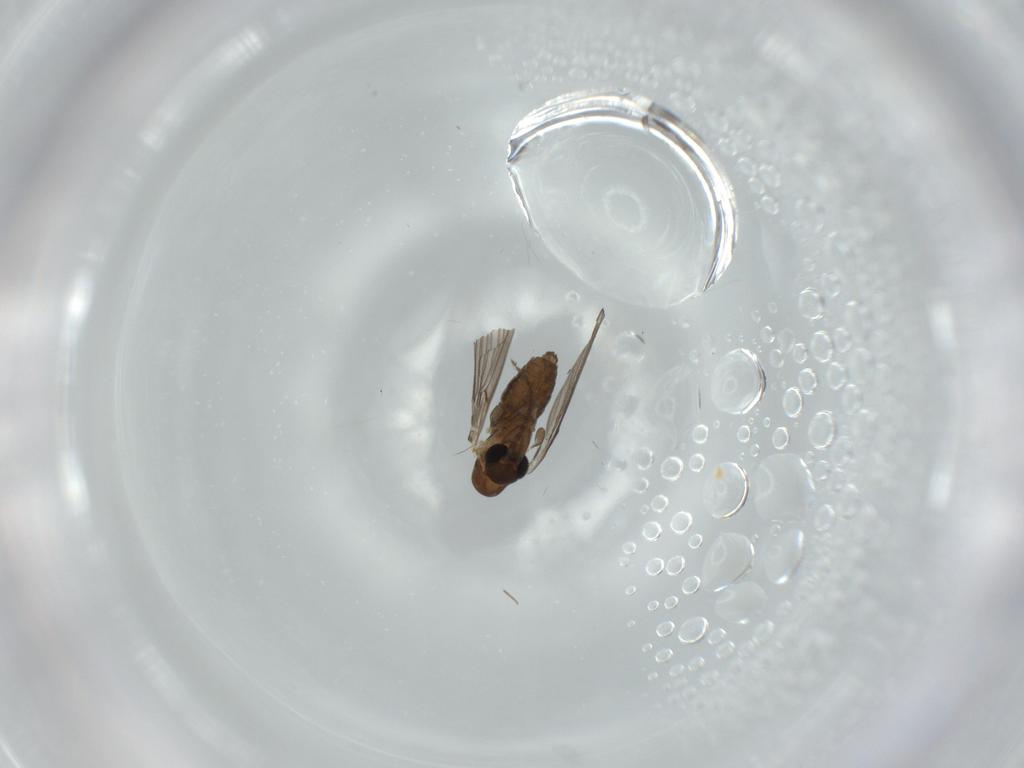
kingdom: Animalia
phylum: Arthropoda
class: Insecta
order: Diptera
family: Psychodidae
